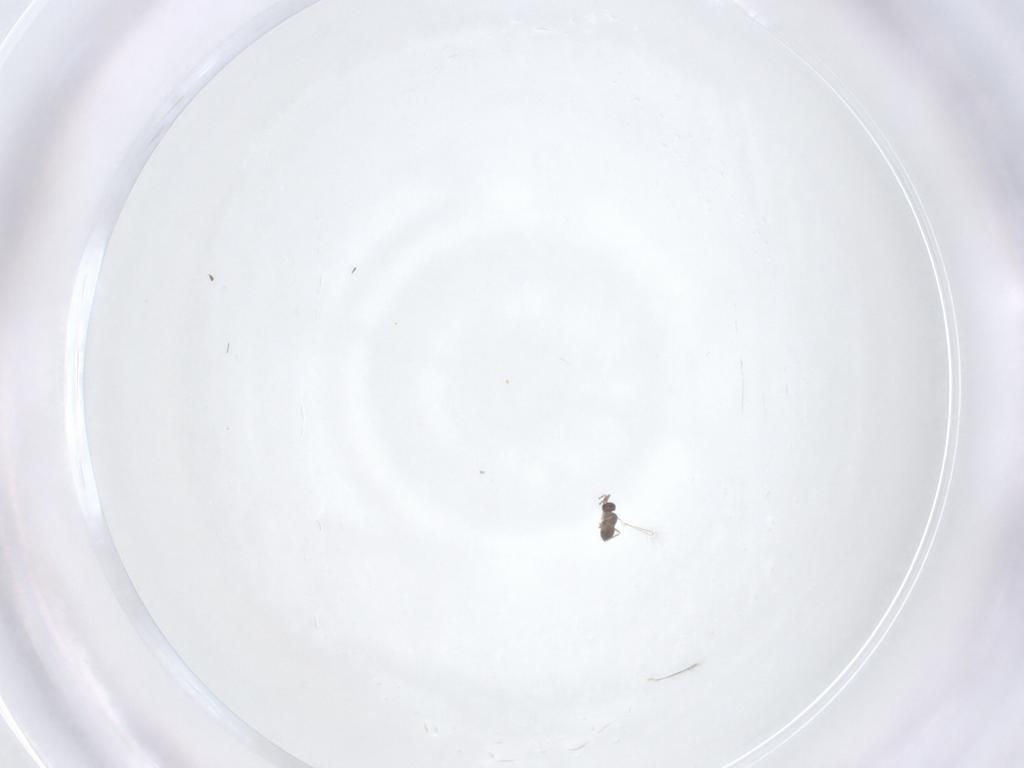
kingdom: Animalia
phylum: Arthropoda
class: Insecta
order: Hymenoptera
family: Mymaridae
